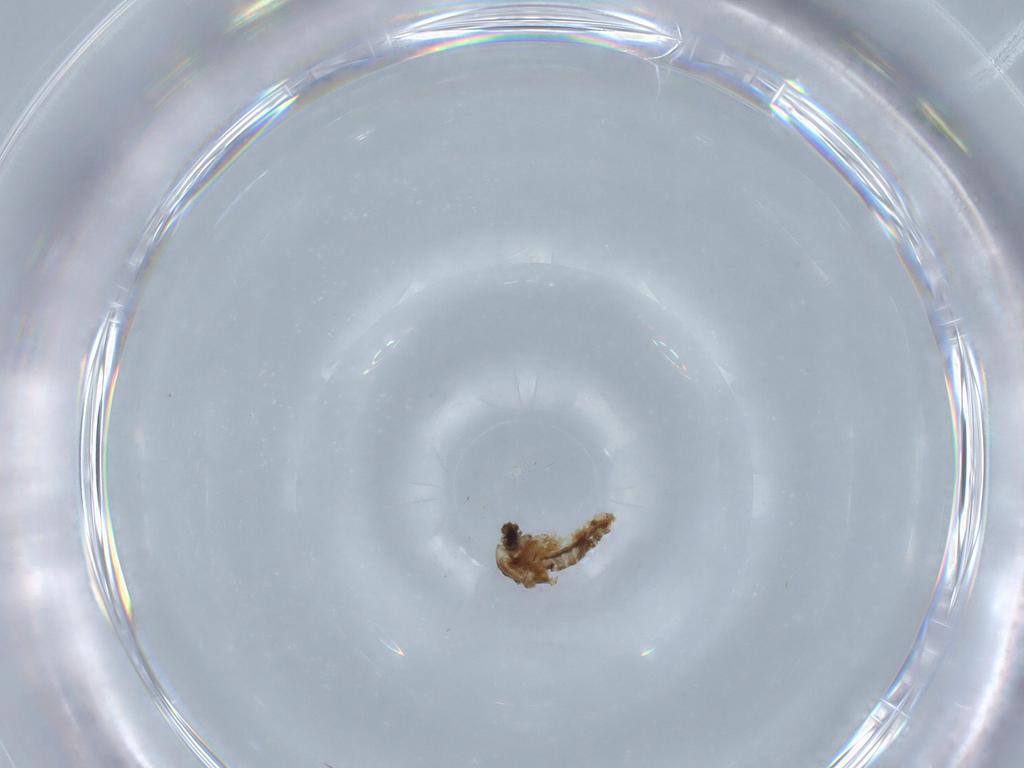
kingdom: Animalia
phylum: Arthropoda
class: Insecta
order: Diptera
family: Chironomidae
